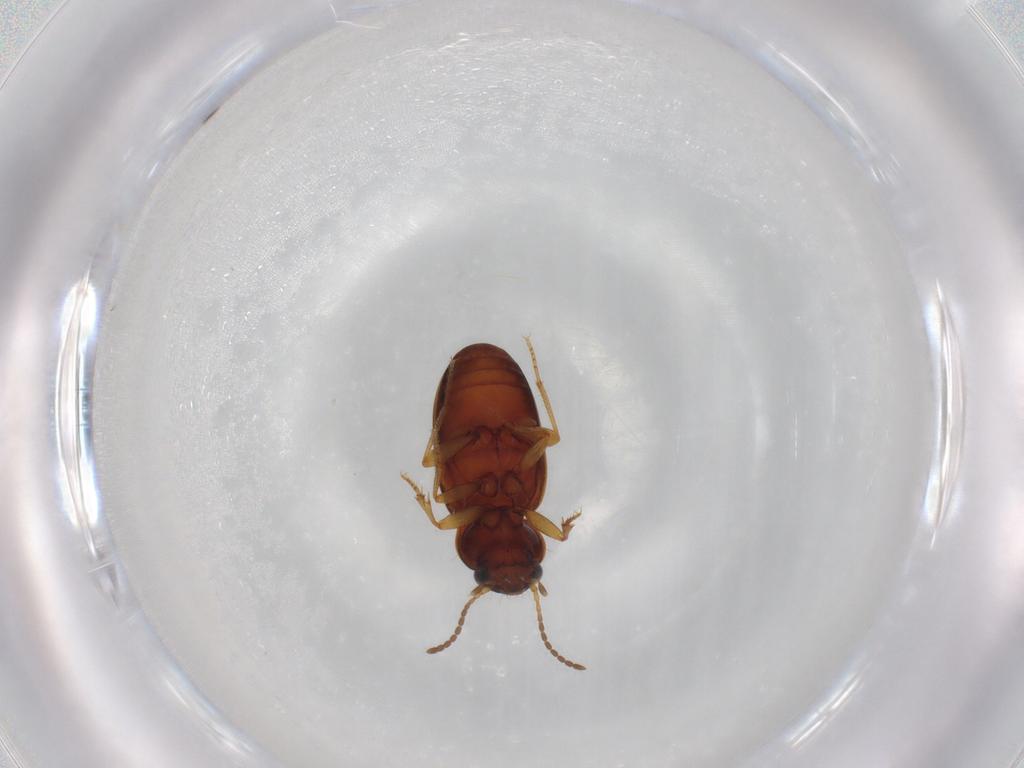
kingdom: Animalia
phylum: Arthropoda
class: Insecta
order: Coleoptera
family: Carabidae
